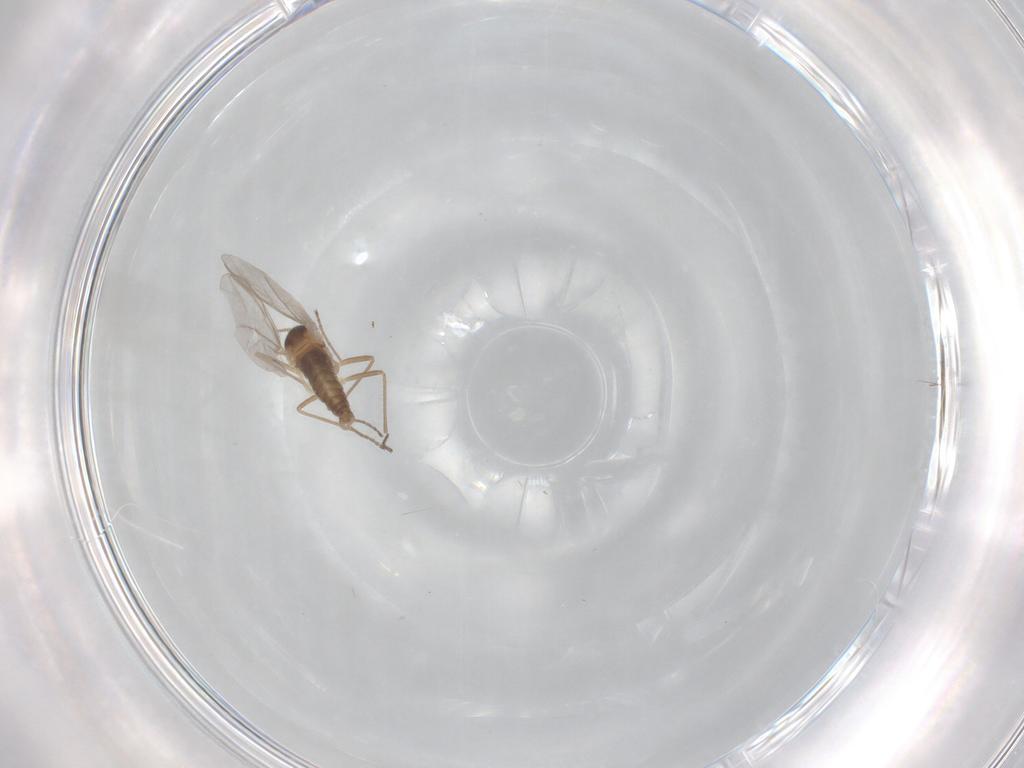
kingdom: Animalia
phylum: Arthropoda
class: Insecta
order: Diptera
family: Cecidomyiidae
